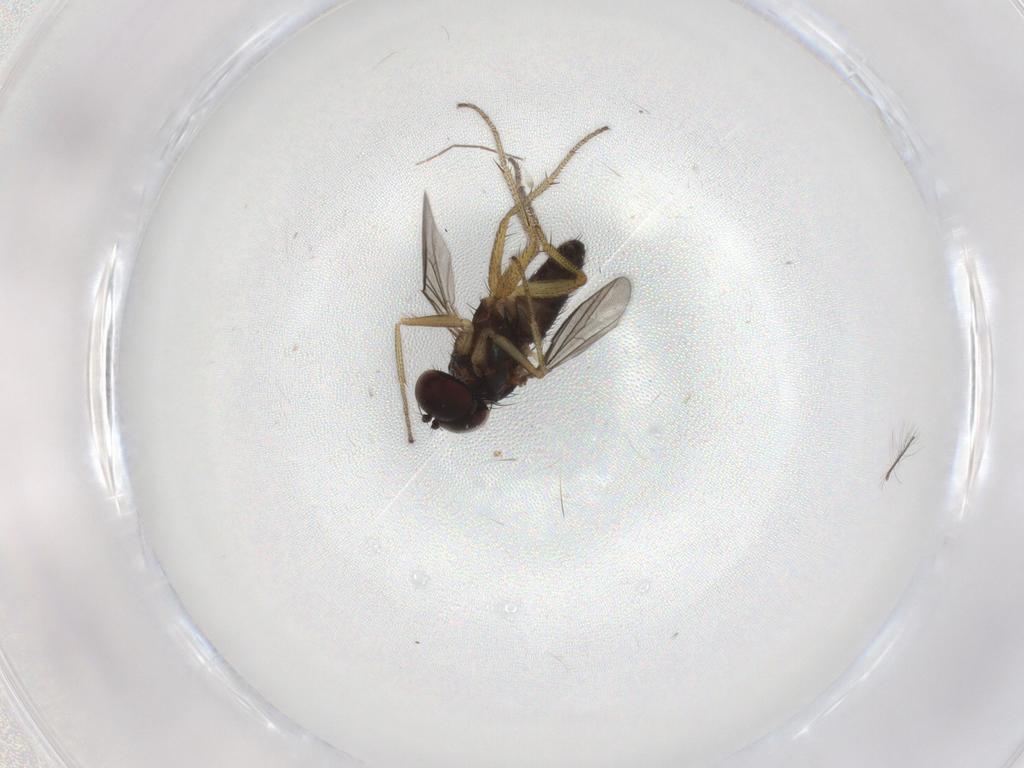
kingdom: Animalia
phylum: Arthropoda
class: Insecta
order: Diptera
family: Chironomidae
